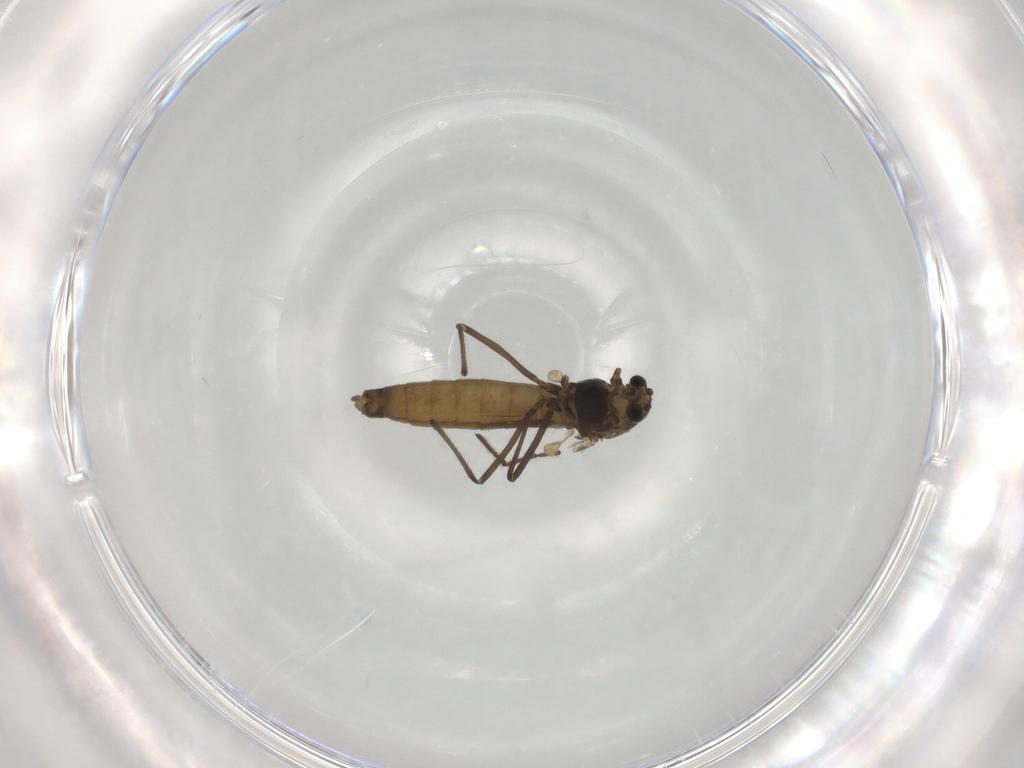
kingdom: Animalia
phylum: Arthropoda
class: Insecta
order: Diptera
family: Chironomidae
